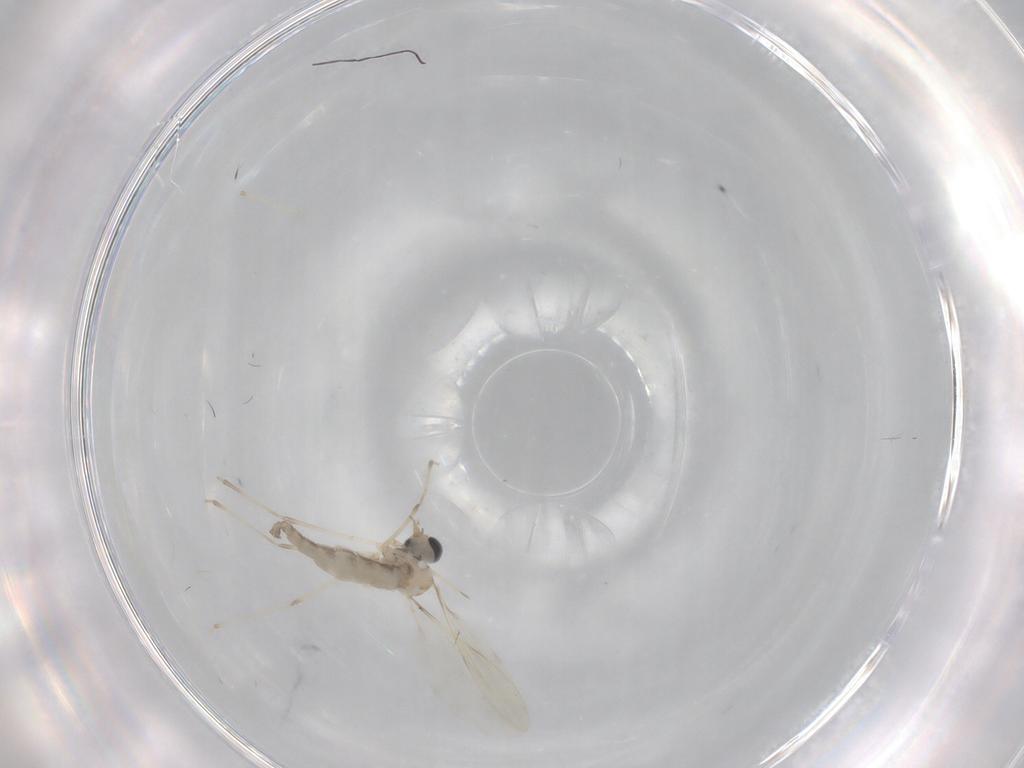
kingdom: Animalia
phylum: Arthropoda
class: Insecta
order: Diptera
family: Cecidomyiidae
